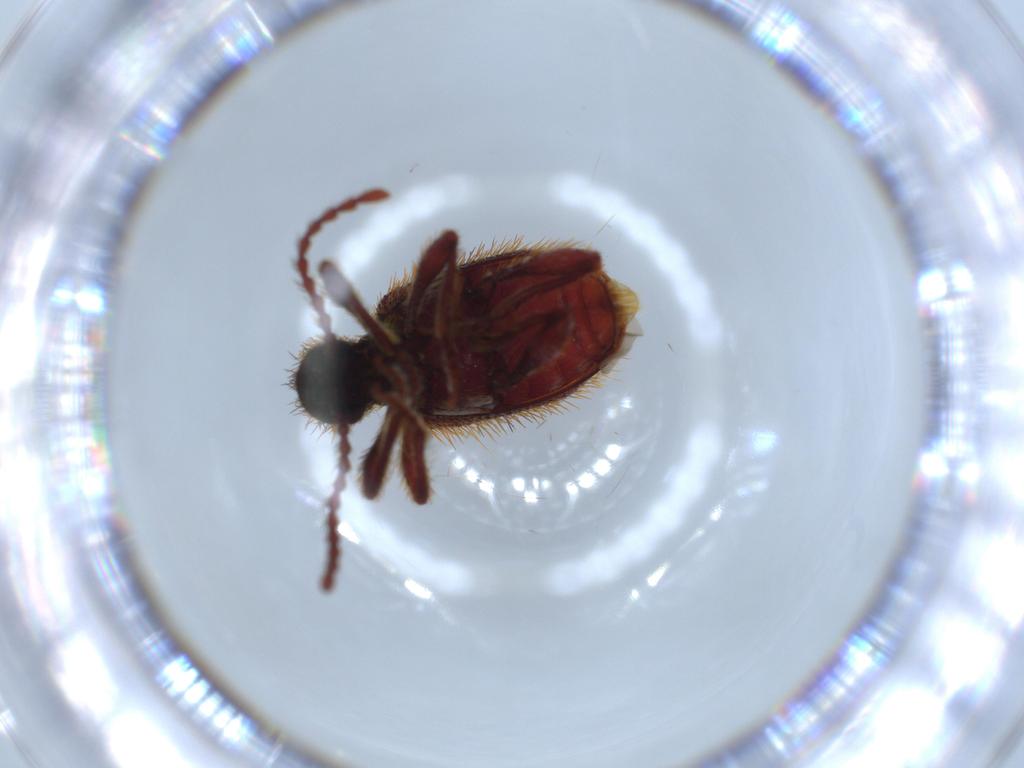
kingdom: Animalia
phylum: Arthropoda
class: Insecta
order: Coleoptera
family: Ptinidae
